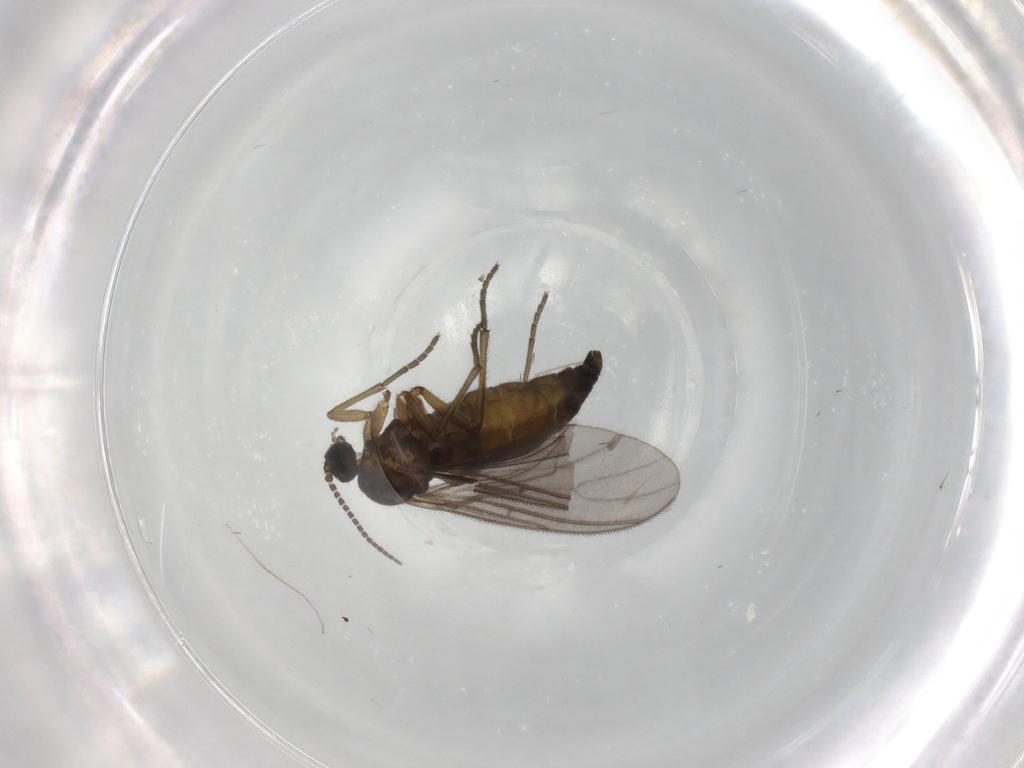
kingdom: Animalia
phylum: Arthropoda
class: Insecta
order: Diptera
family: Sciaridae
